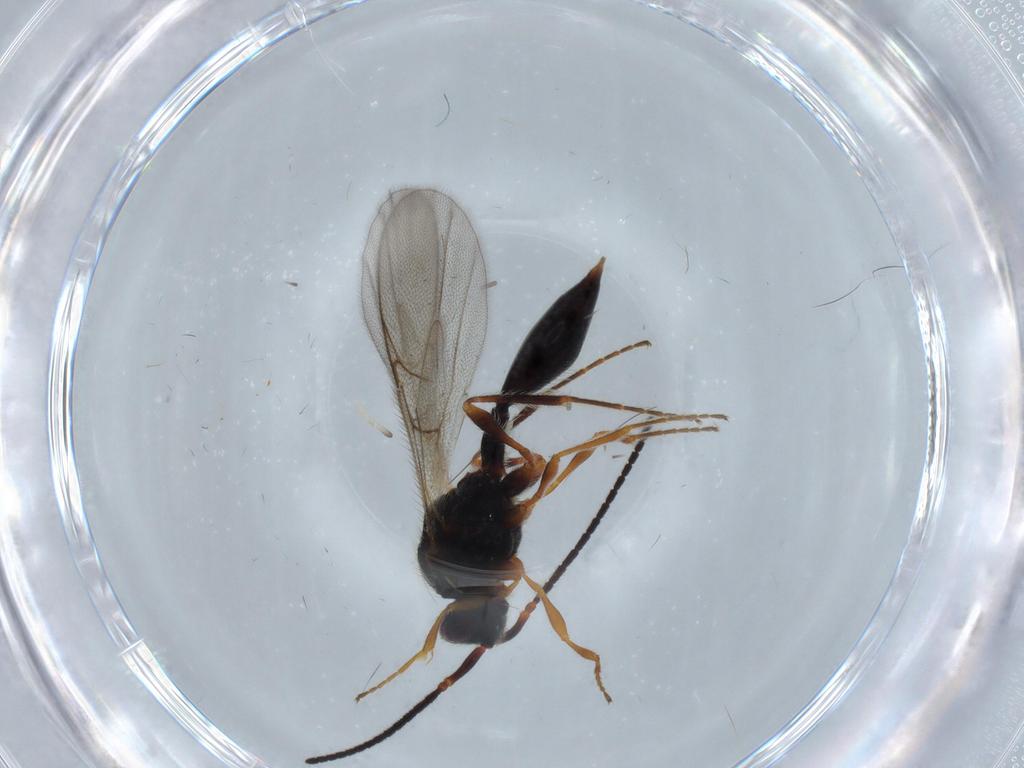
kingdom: Animalia
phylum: Arthropoda
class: Insecta
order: Hymenoptera
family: Diapriidae
